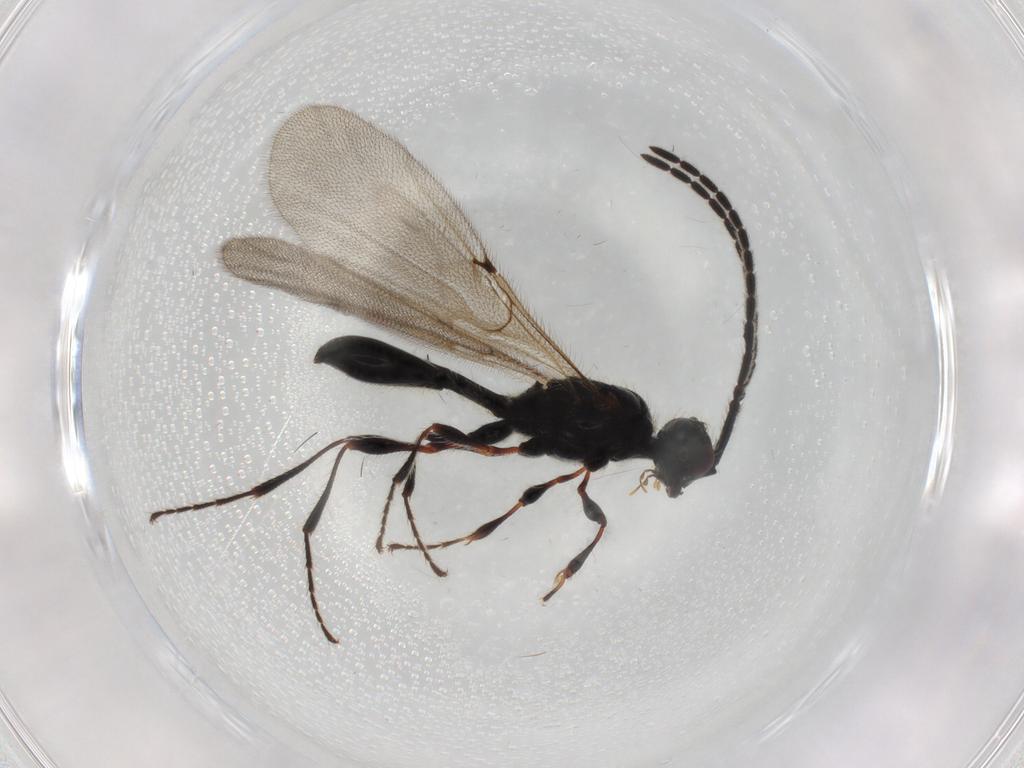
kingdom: Animalia
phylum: Arthropoda
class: Insecta
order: Hymenoptera
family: Diapriidae
